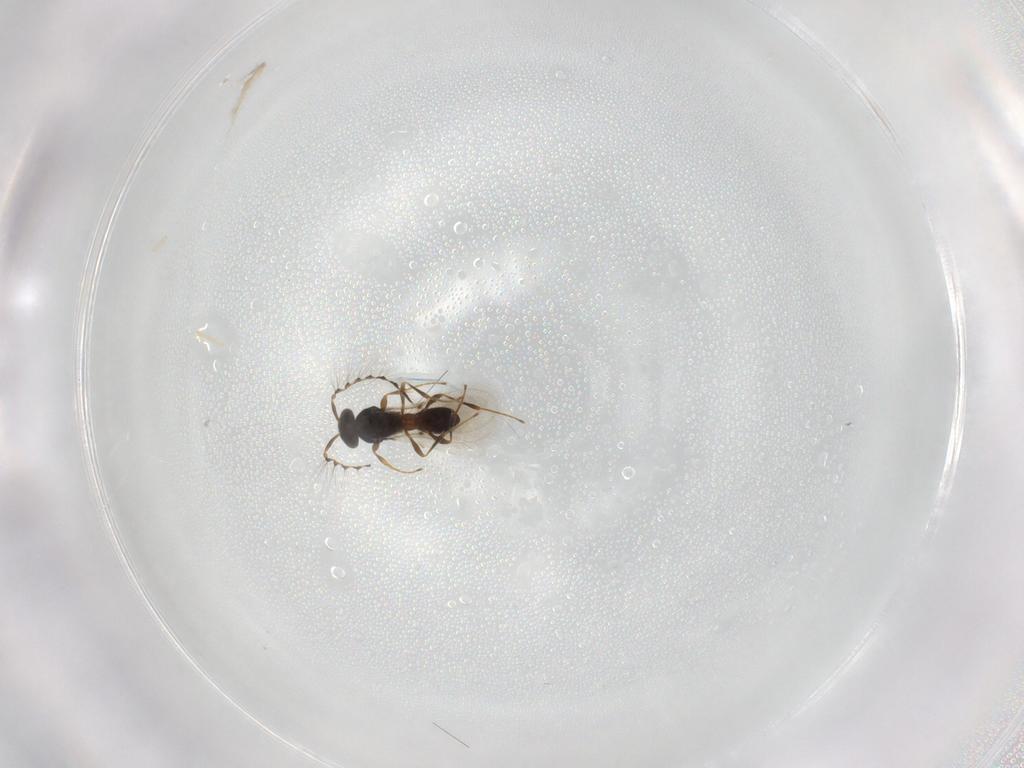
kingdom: Animalia
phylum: Arthropoda
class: Insecta
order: Hymenoptera
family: Platygastridae
